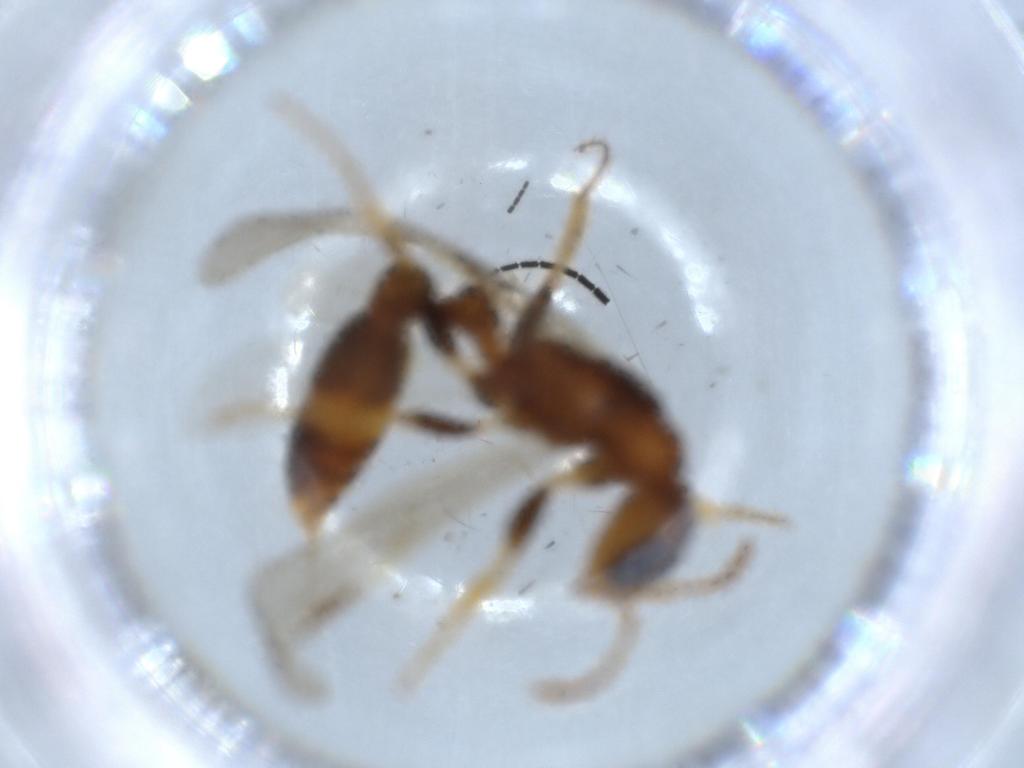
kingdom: Animalia
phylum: Arthropoda
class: Insecta
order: Hymenoptera
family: Formicidae
